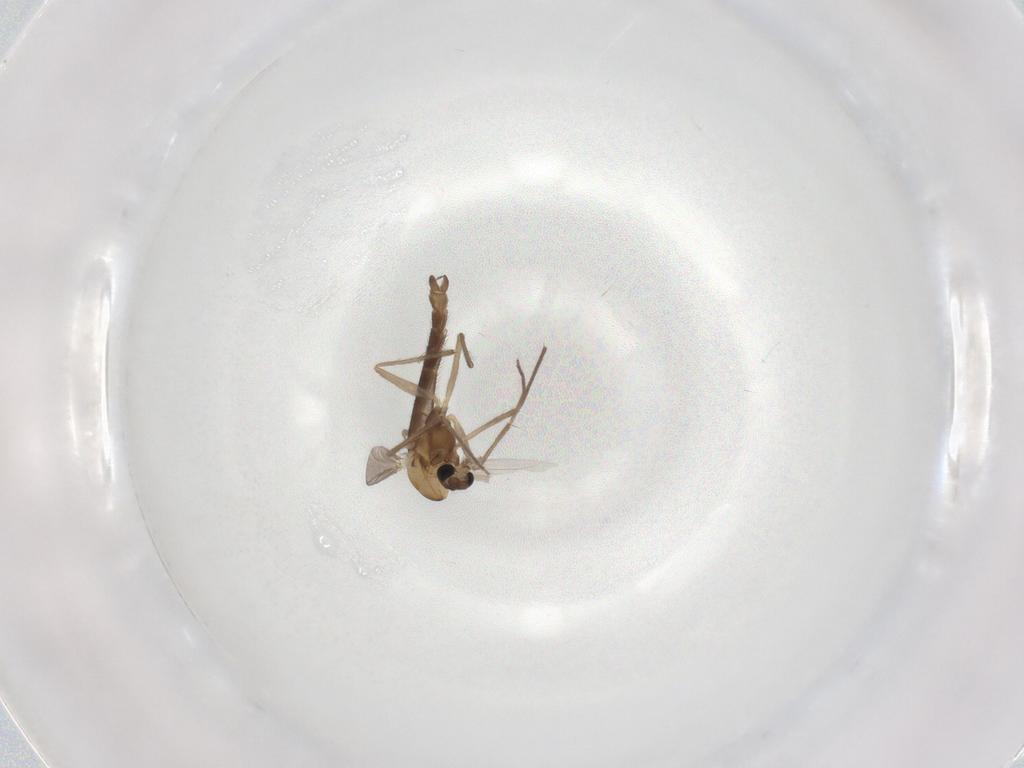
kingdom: Animalia
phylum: Arthropoda
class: Insecta
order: Diptera
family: Chironomidae
